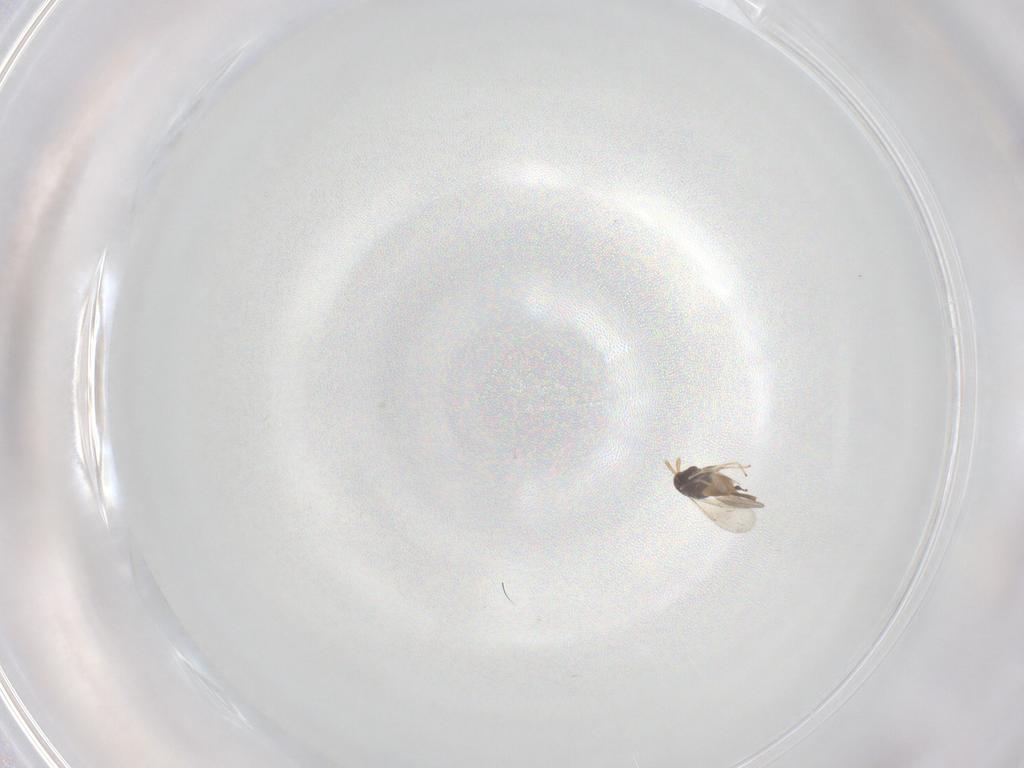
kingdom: Animalia
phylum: Arthropoda
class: Insecta
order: Hymenoptera
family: Aphelinidae
